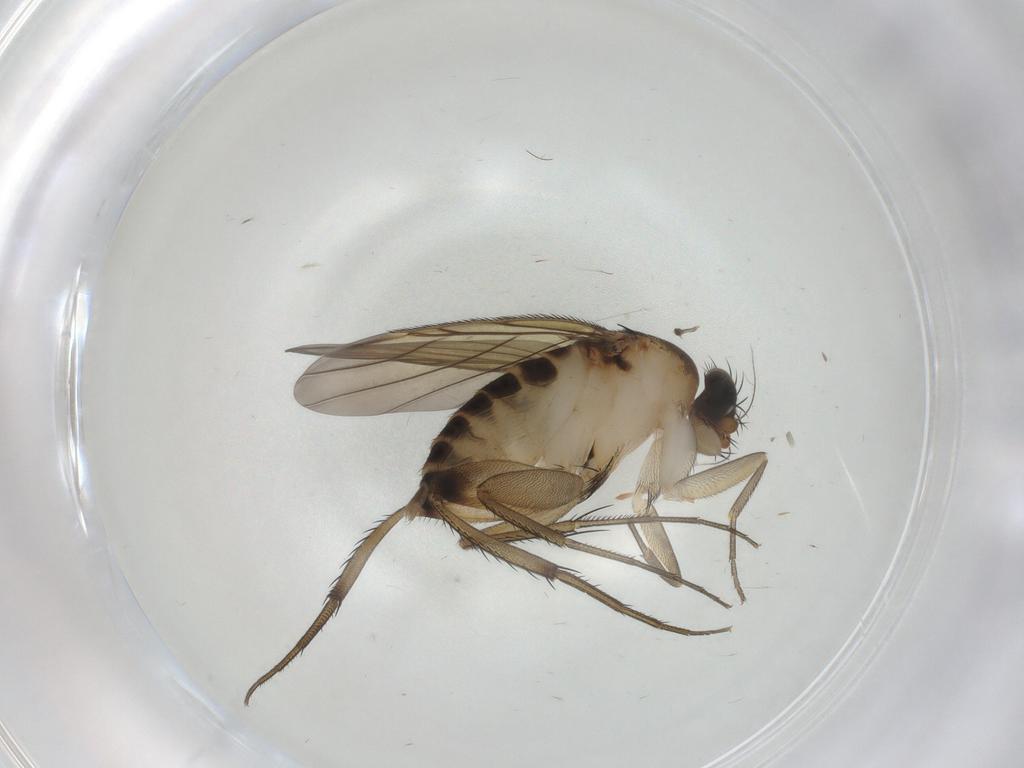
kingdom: Animalia
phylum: Arthropoda
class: Insecta
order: Diptera
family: Phoridae
